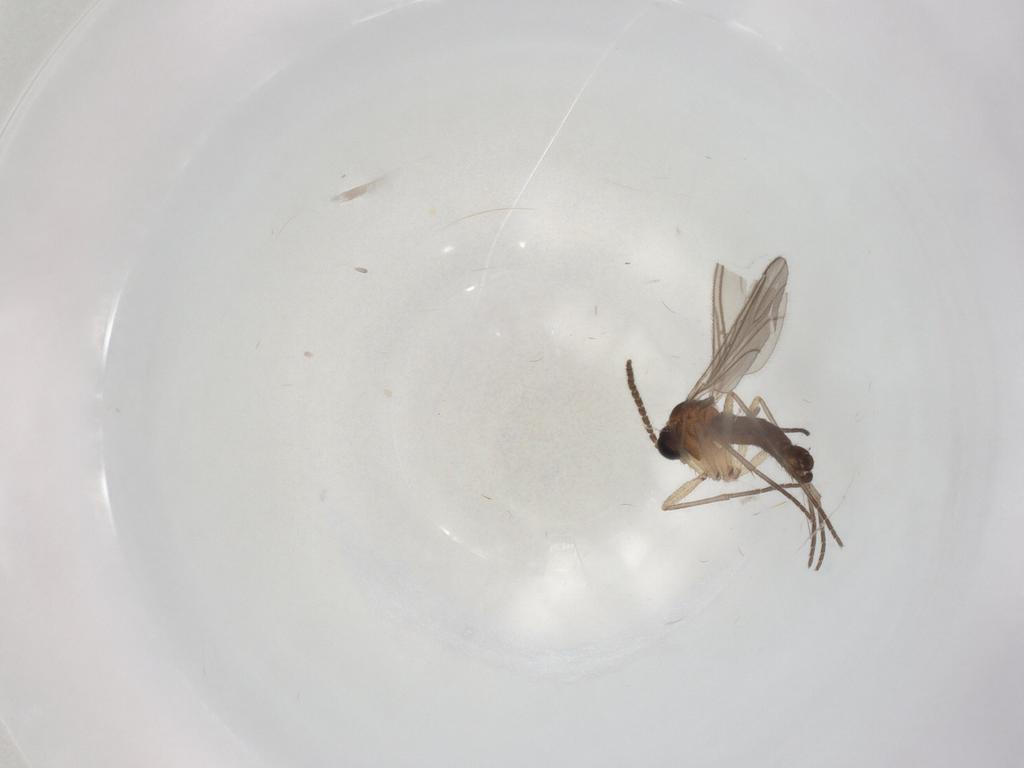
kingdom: Animalia
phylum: Arthropoda
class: Insecta
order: Diptera
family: Sciaridae
